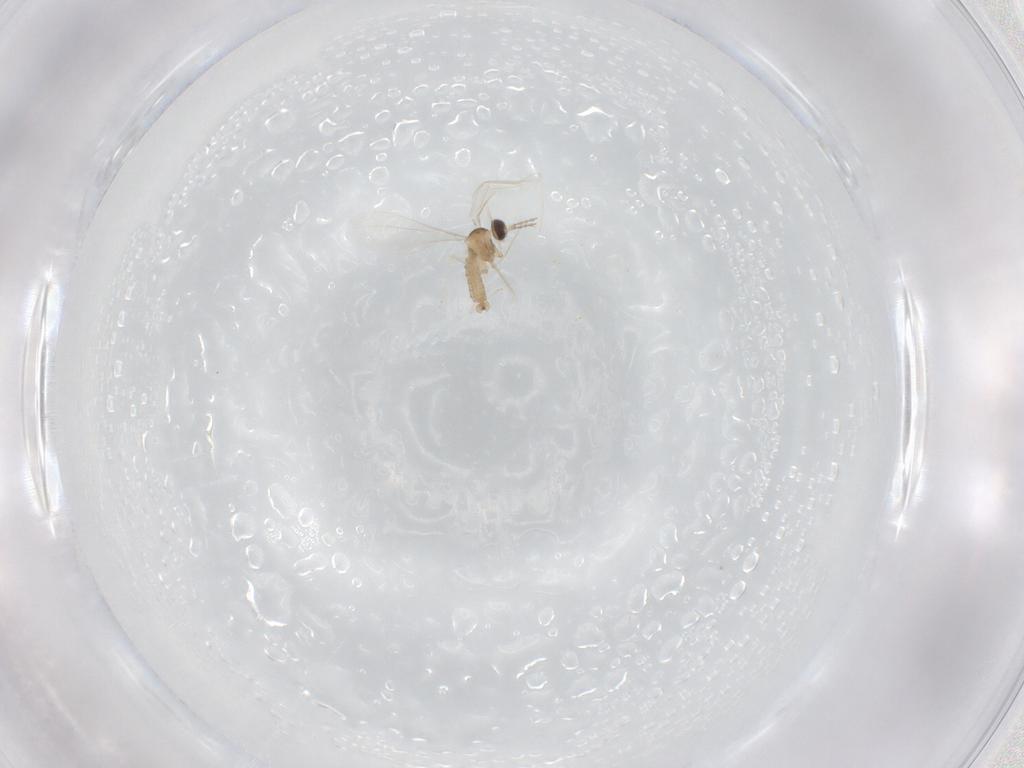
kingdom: Animalia
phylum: Arthropoda
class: Insecta
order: Diptera
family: Cecidomyiidae
